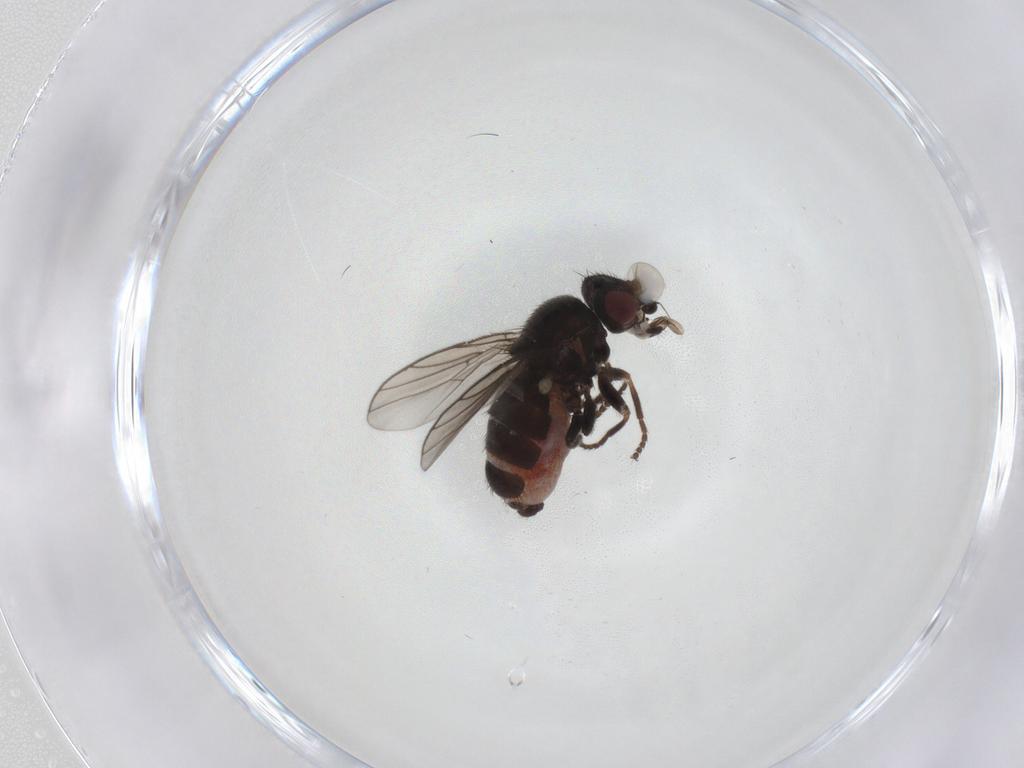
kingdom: Animalia
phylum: Arthropoda
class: Insecta
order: Diptera
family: Chloropidae
